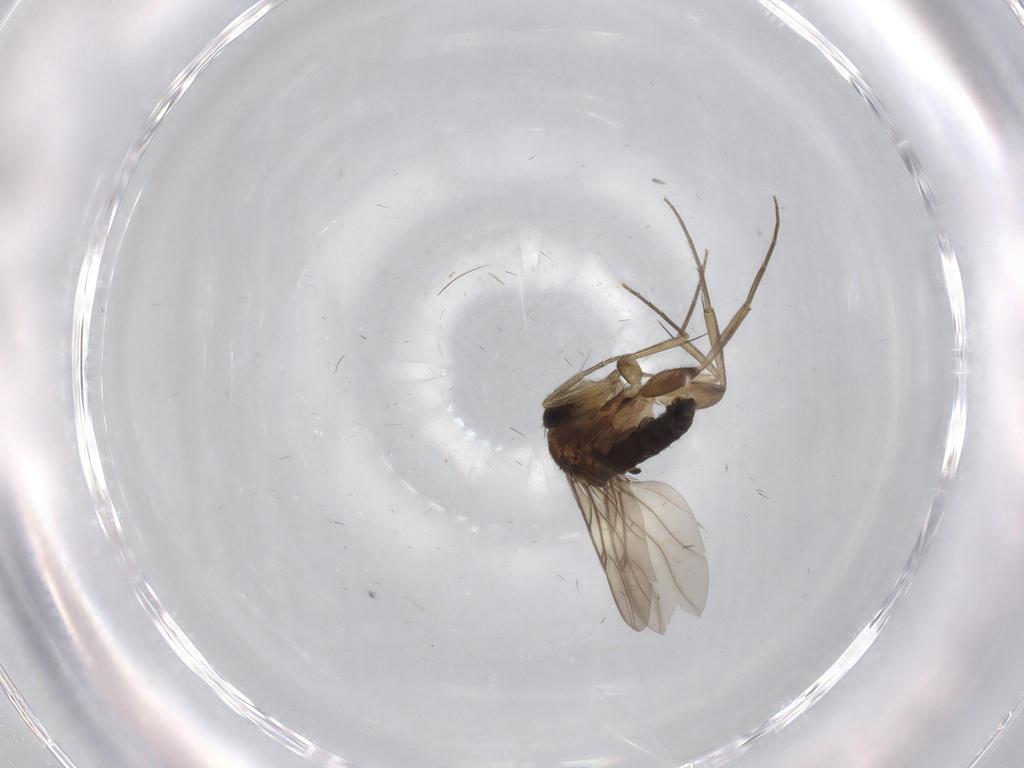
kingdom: Animalia
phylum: Arthropoda
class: Insecta
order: Diptera
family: Phoridae
